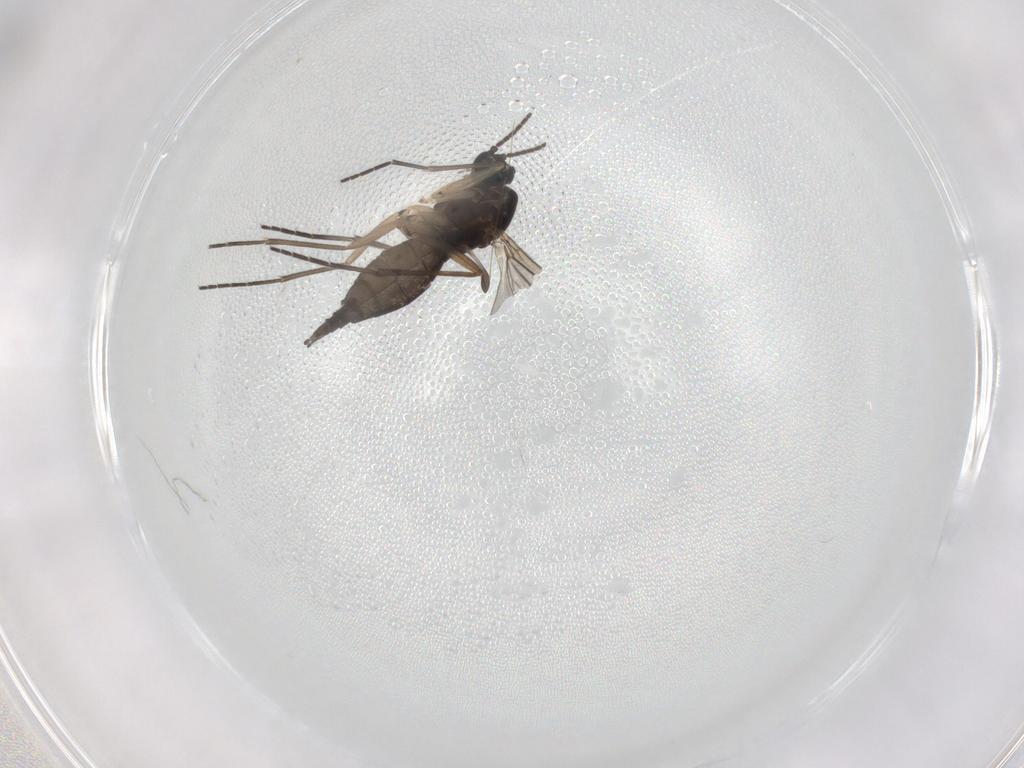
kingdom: Animalia
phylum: Arthropoda
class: Insecta
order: Diptera
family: Sciaridae
